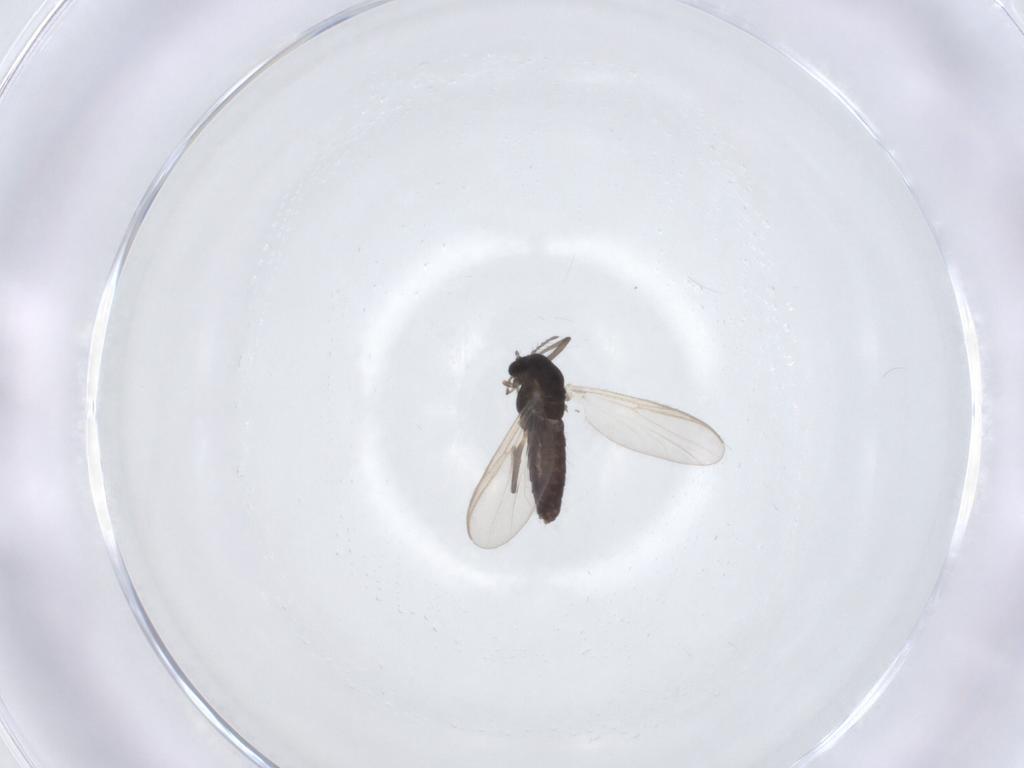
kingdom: Animalia
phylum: Arthropoda
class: Insecta
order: Diptera
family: Chironomidae
